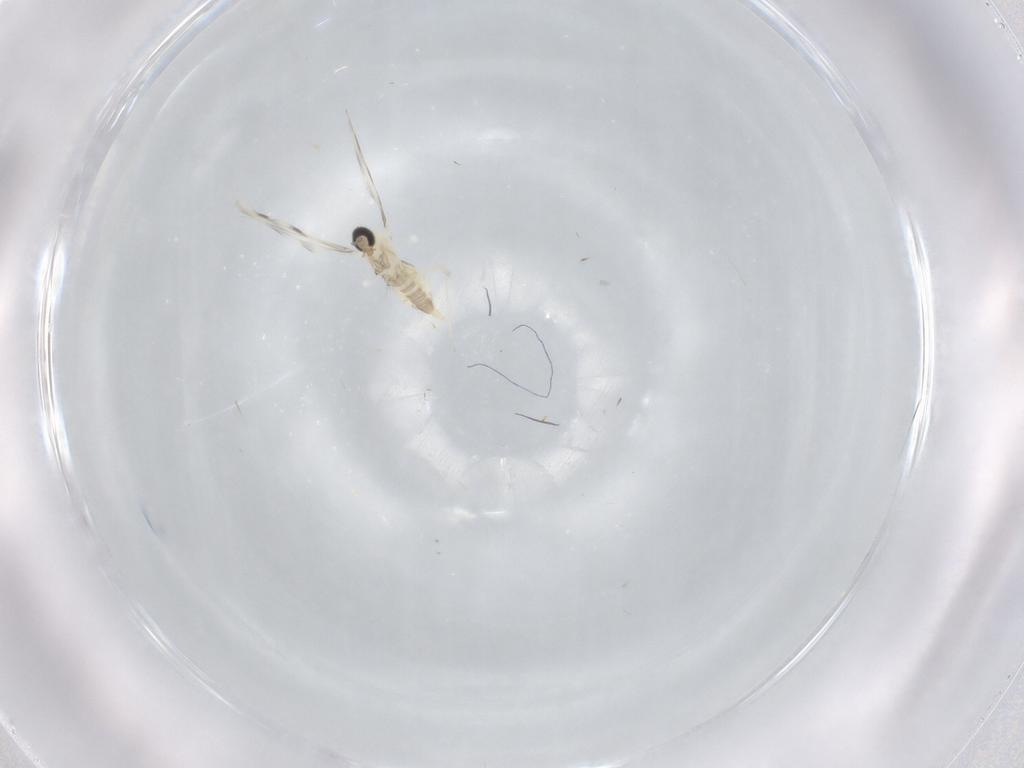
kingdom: Animalia
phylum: Arthropoda
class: Insecta
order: Diptera
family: Cecidomyiidae
